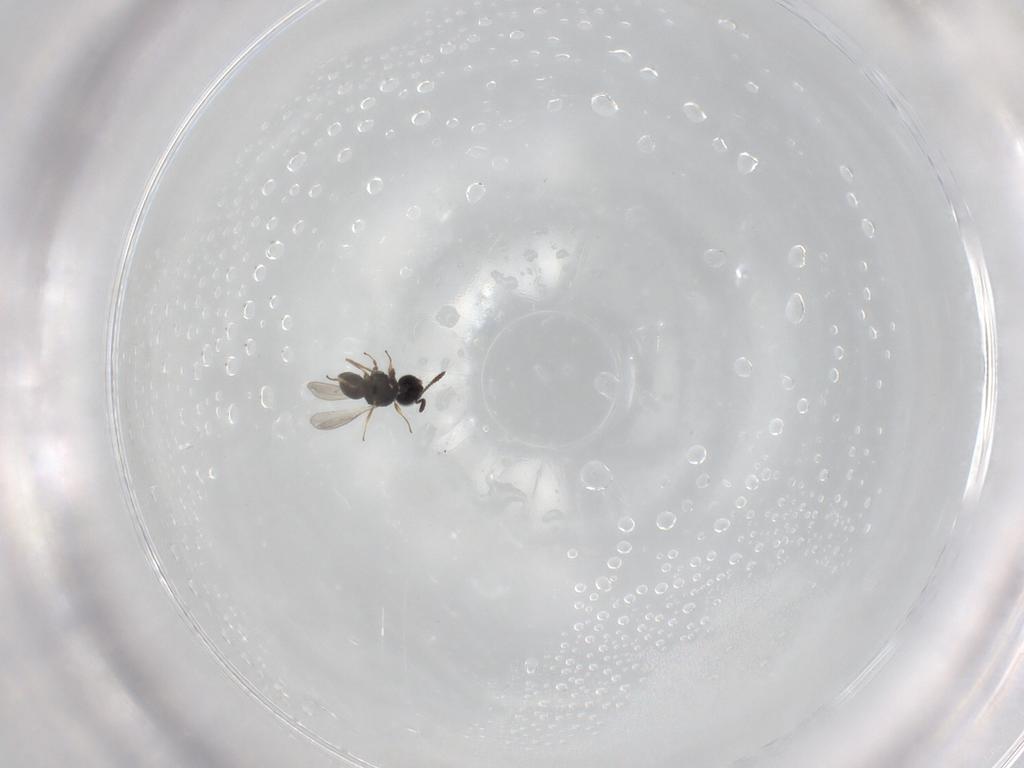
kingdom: Animalia
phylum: Arthropoda
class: Insecta
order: Hymenoptera
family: Scelionidae
